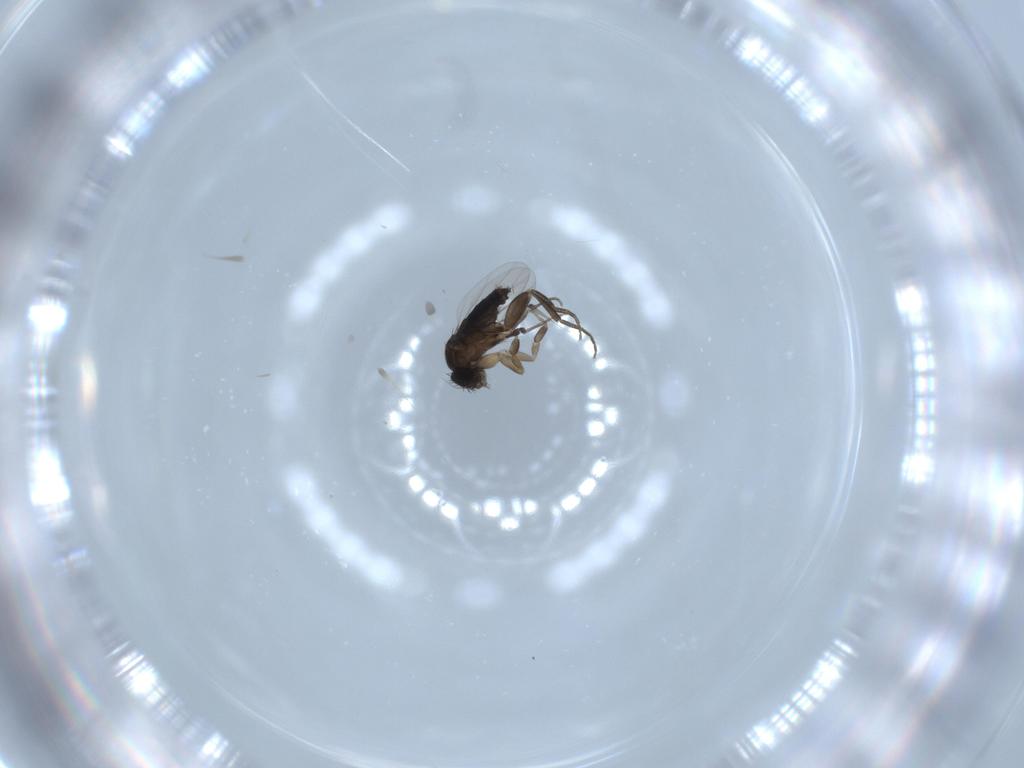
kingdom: Animalia
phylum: Arthropoda
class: Insecta
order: Diptera
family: Phoridae
